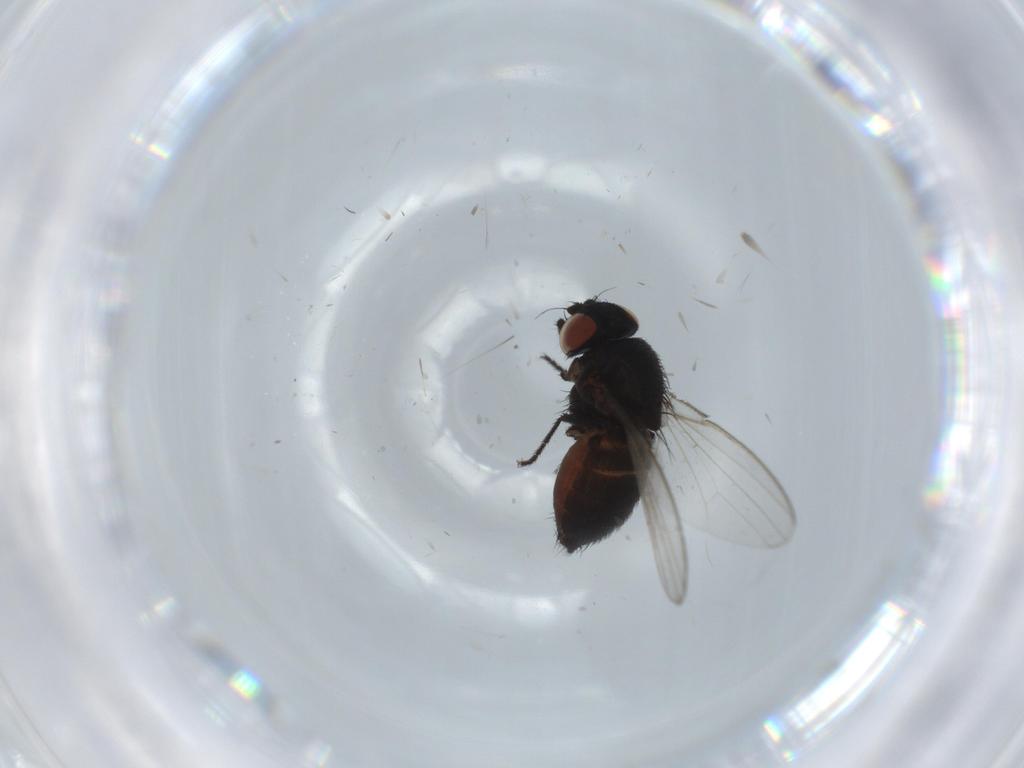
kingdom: Animalia
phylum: Arthropoda
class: Insecta
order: Diptera
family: Milichiidae
